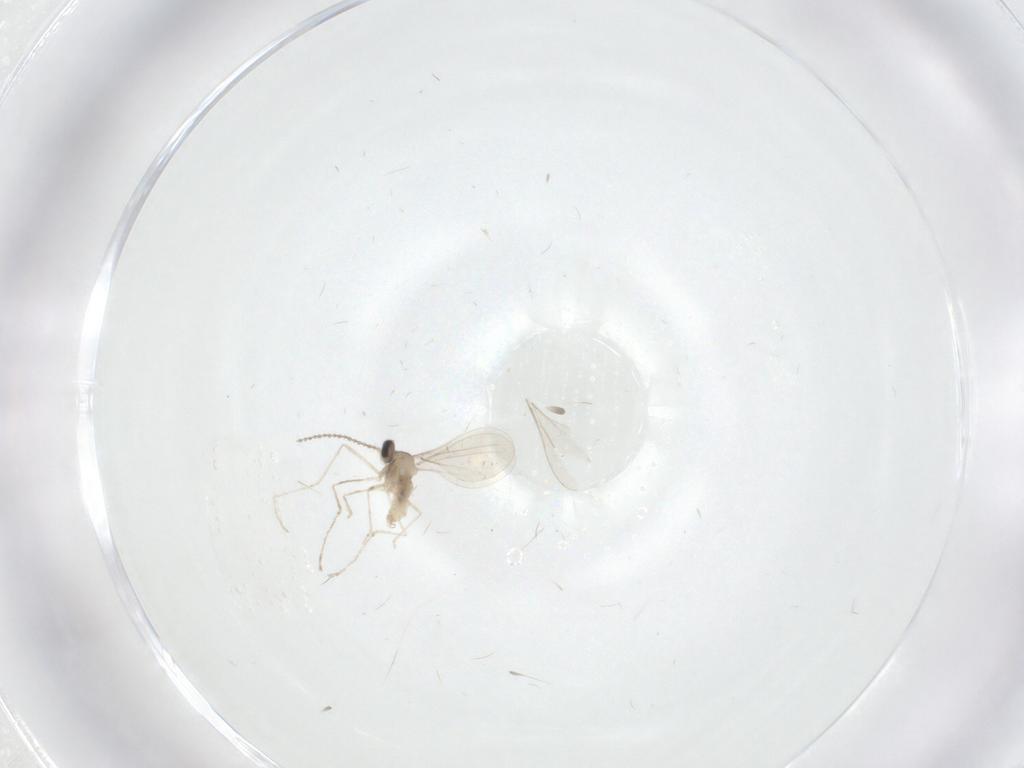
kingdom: Animalia
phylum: Arthropoda
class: Insecta
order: Diptera
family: Cecidomyiidae
